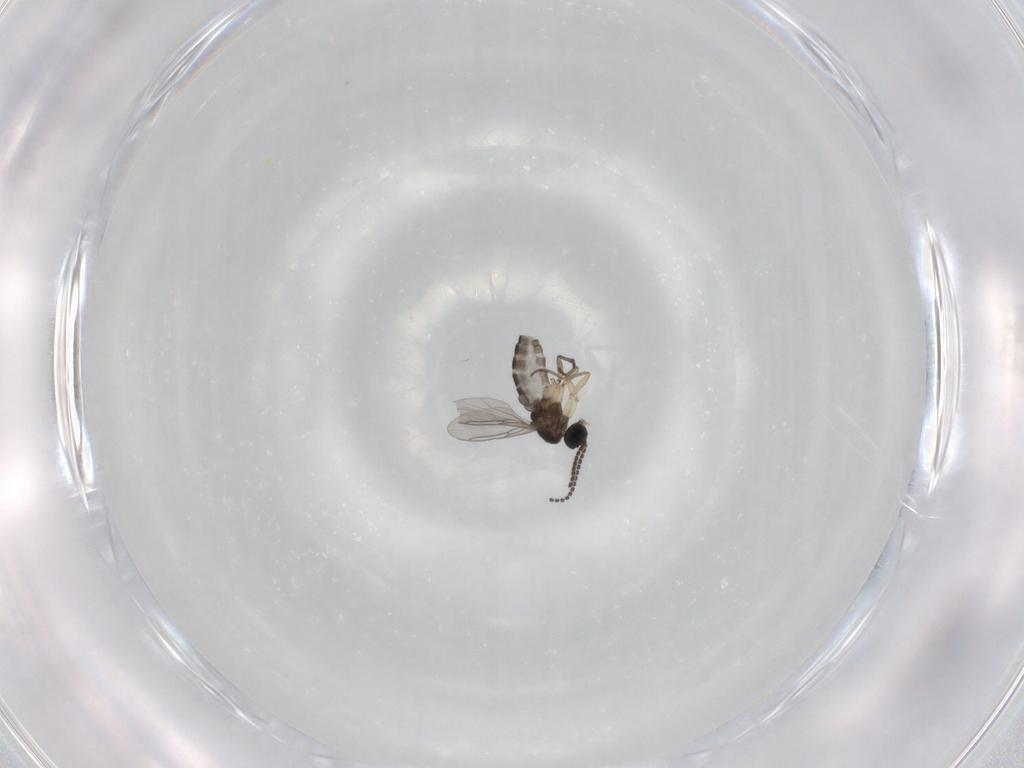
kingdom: Animalia
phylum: Arthropoda
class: Insecta
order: Diptera
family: Sciaridae
